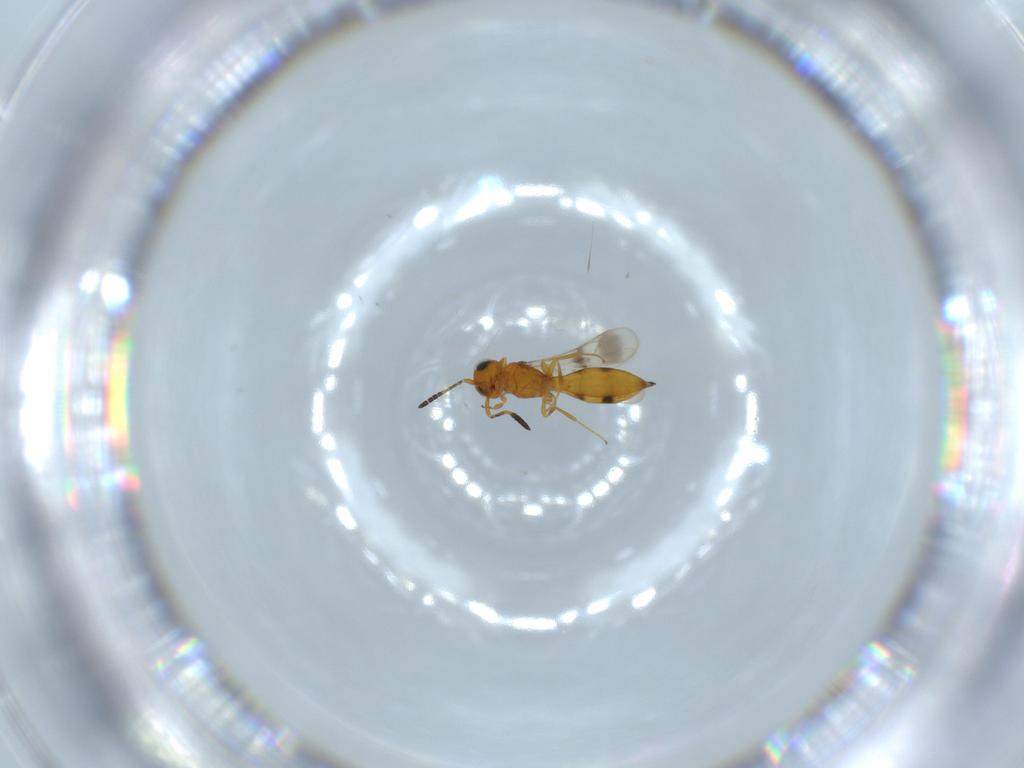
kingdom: Animalia
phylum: Arthropoda
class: Insecta
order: Hymenoptera
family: Scelionidae
